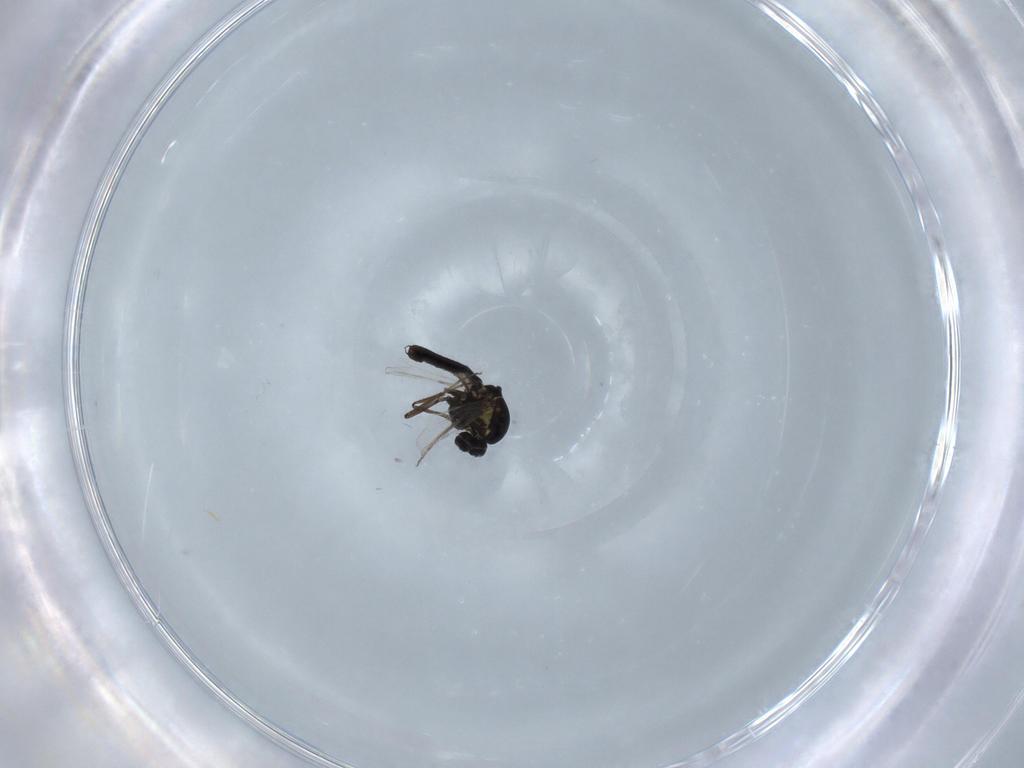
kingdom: Animalia
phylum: Arthropoda
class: Insecta
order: Diptera
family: Ceratopogonidae
